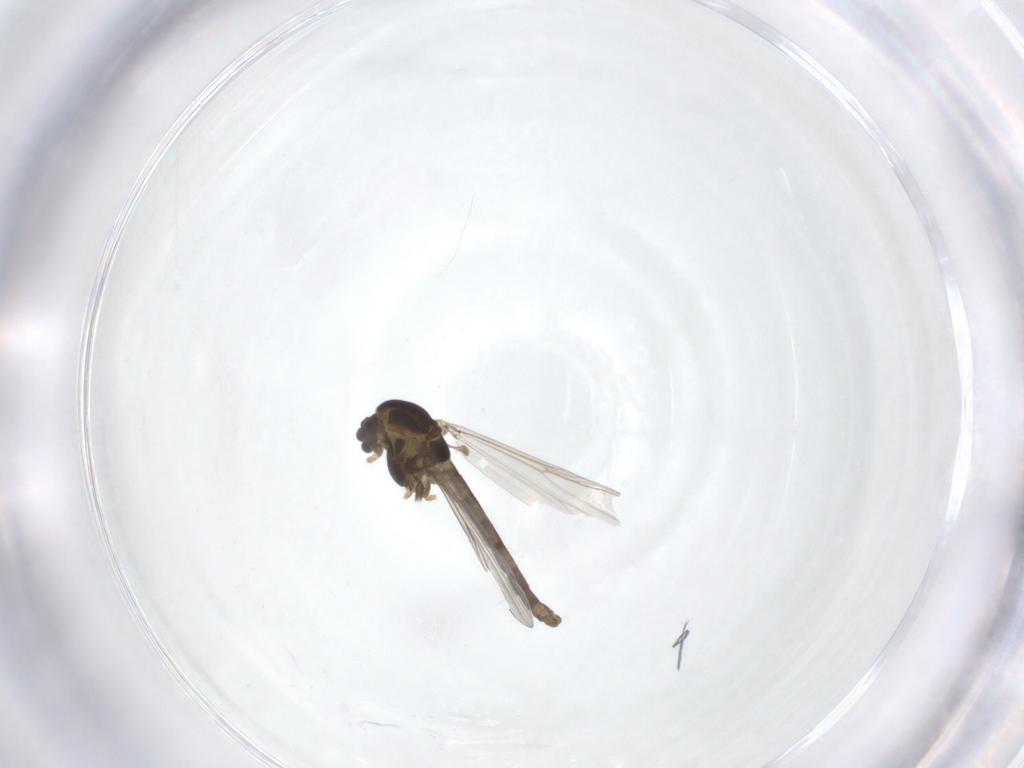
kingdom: Animalia
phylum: Arthropoda
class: Insecta
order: Diptera
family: Chironomidae
